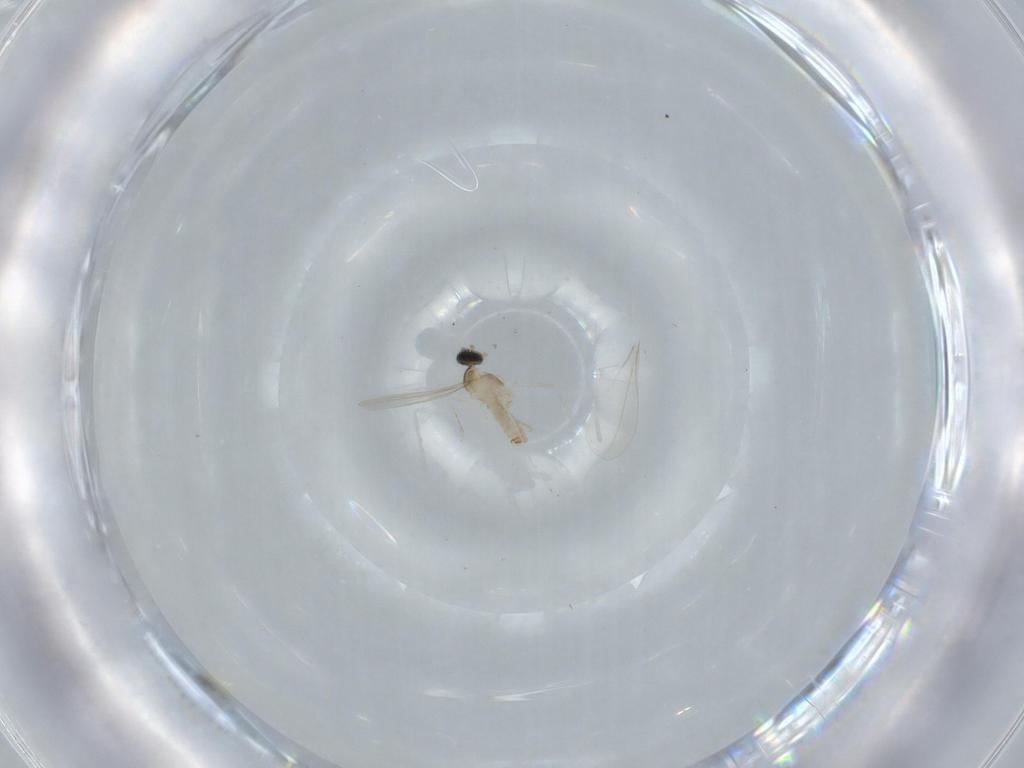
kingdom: Animalia
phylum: Arthropoda
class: Insecta
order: Diptera
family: Cecidomyiidae
